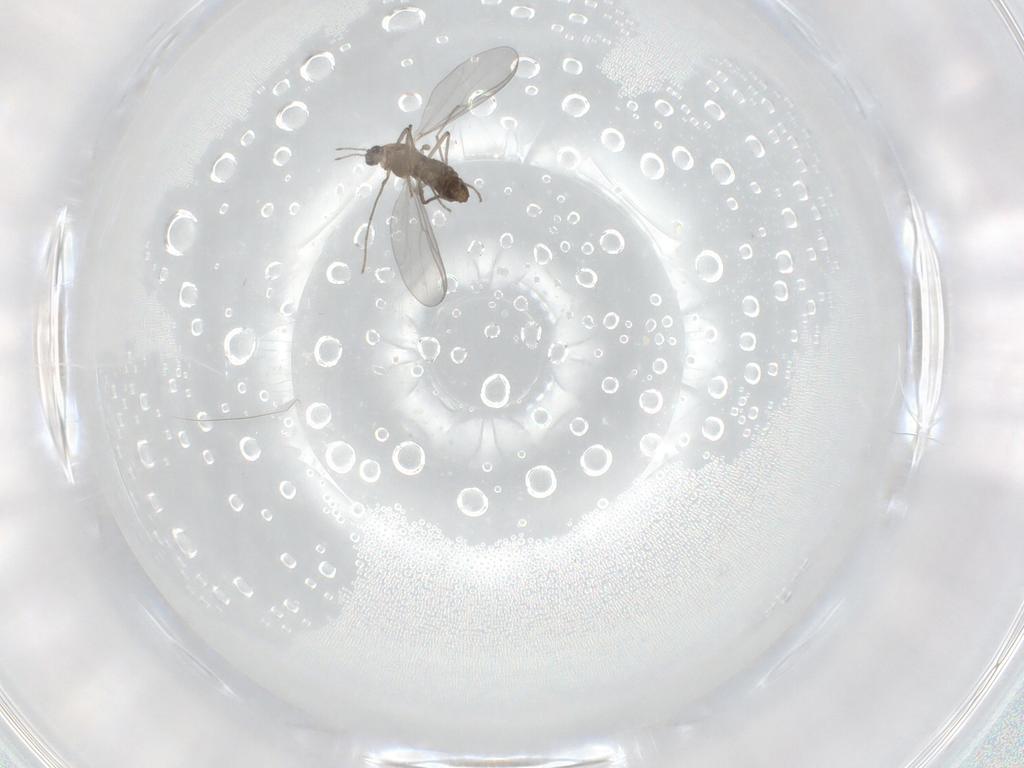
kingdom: Animalia
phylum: Arthropoda
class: Insecta
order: Diptera
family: Chironomidae
